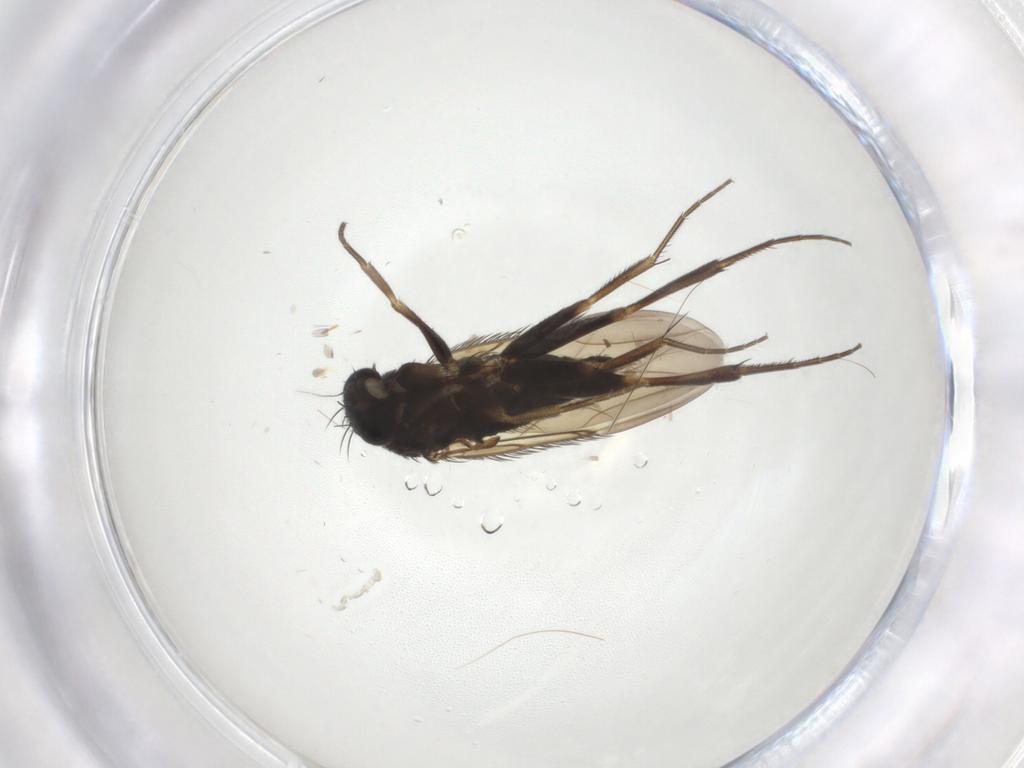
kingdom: Animalia
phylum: Arthropoda
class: Insecta
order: Diptera
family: Phoridae
